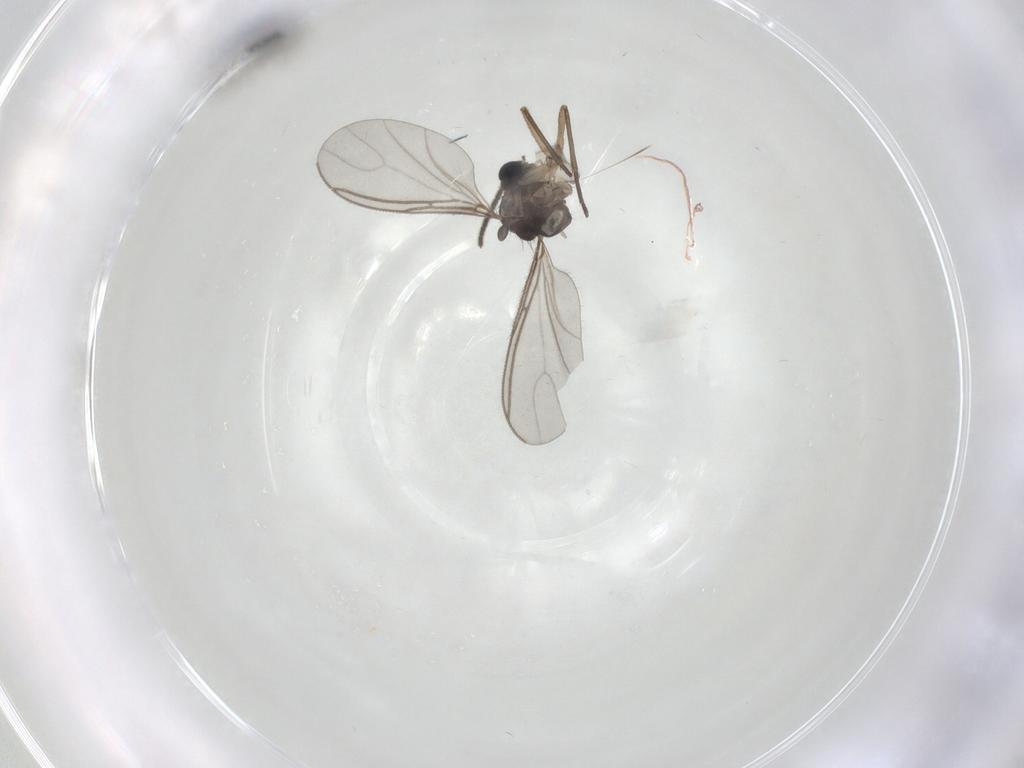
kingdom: Animalia
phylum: Arthropoda
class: Insecta
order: Diptera
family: Sciaridae
